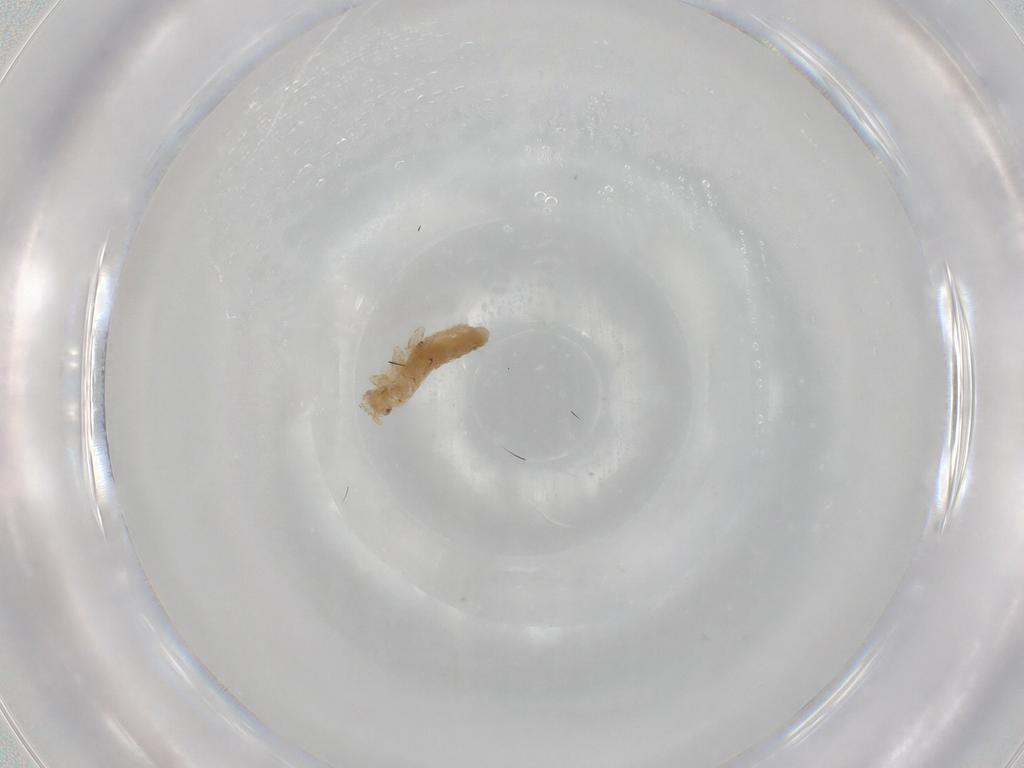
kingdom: Animalia
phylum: Arthropoda
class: Insecta
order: Hemiptera
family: Aphididae
